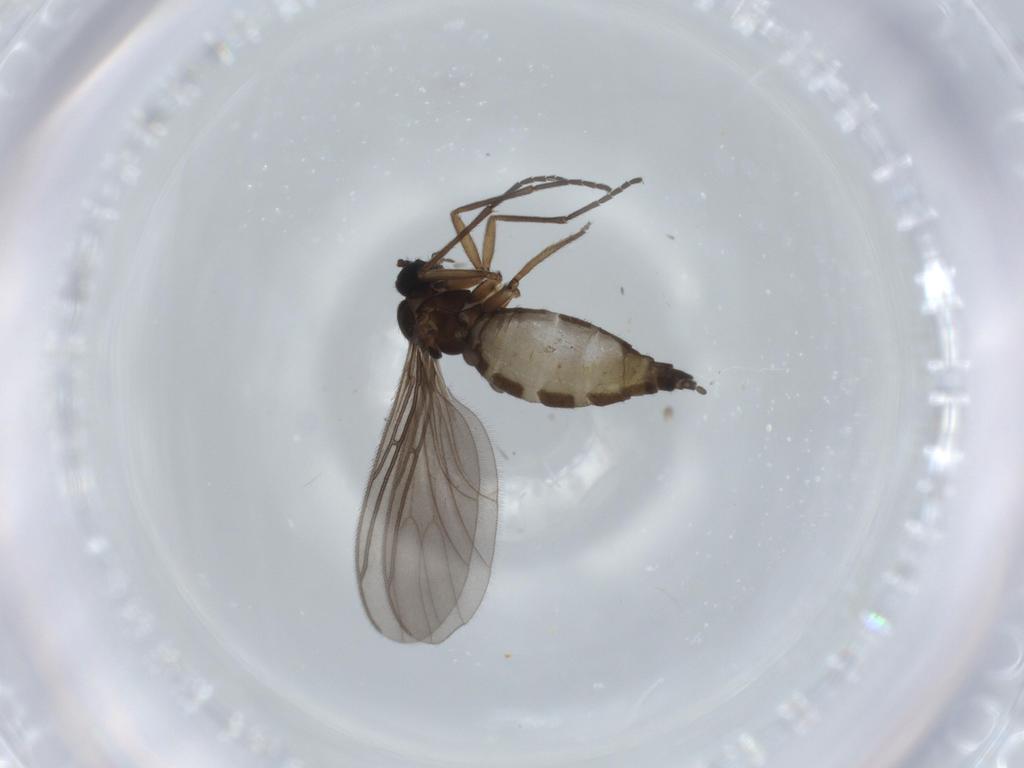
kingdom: Animalia
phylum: Arthropoda
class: Insecta
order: Diptera
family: Sciaridae
